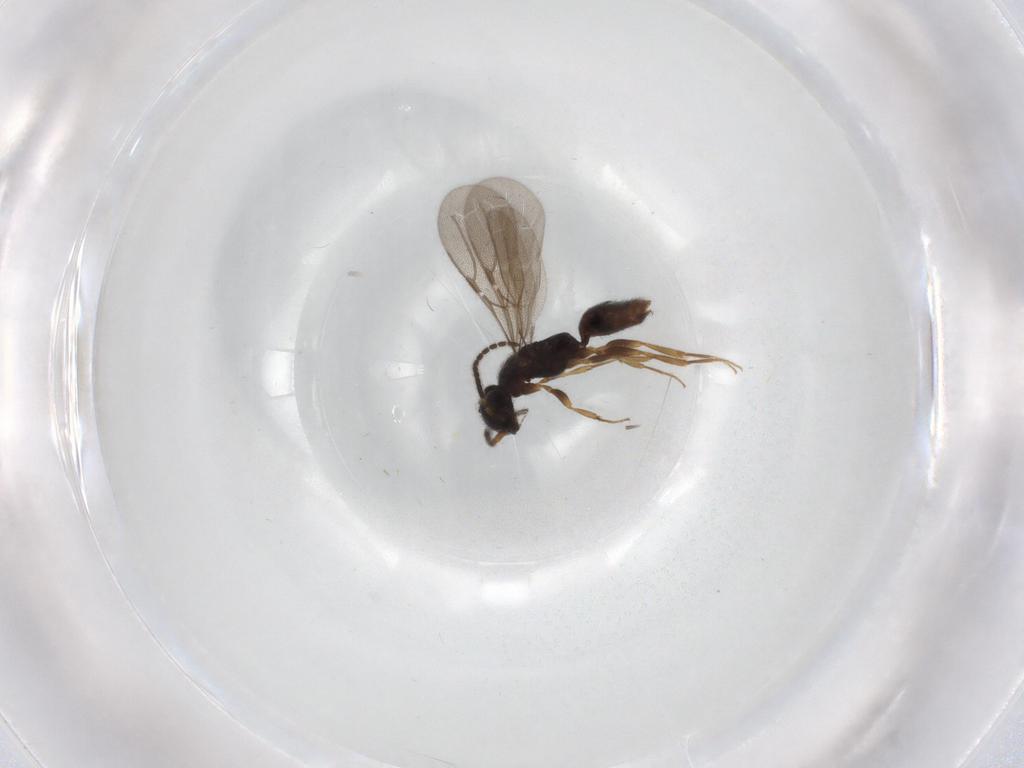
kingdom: Animalia
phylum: Arthropoda
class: Insecta
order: Hymenoptera
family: Bethylidae
